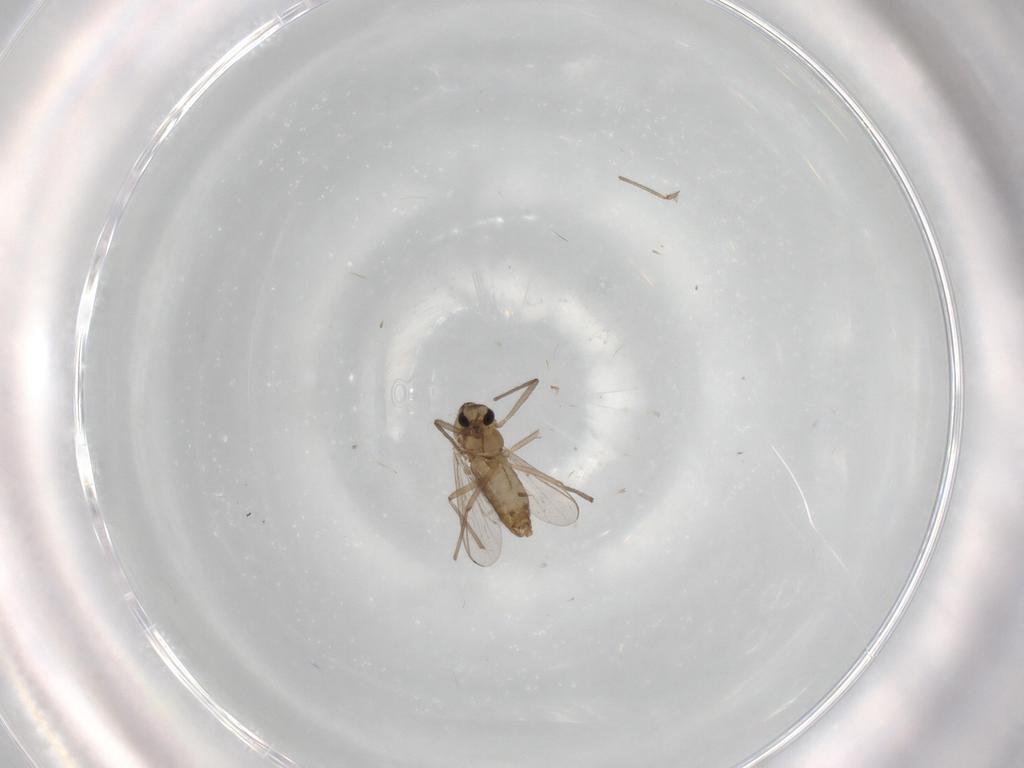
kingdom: Animalia
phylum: Arthropoda
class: Insecta
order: Diptera
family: Chironomidae
